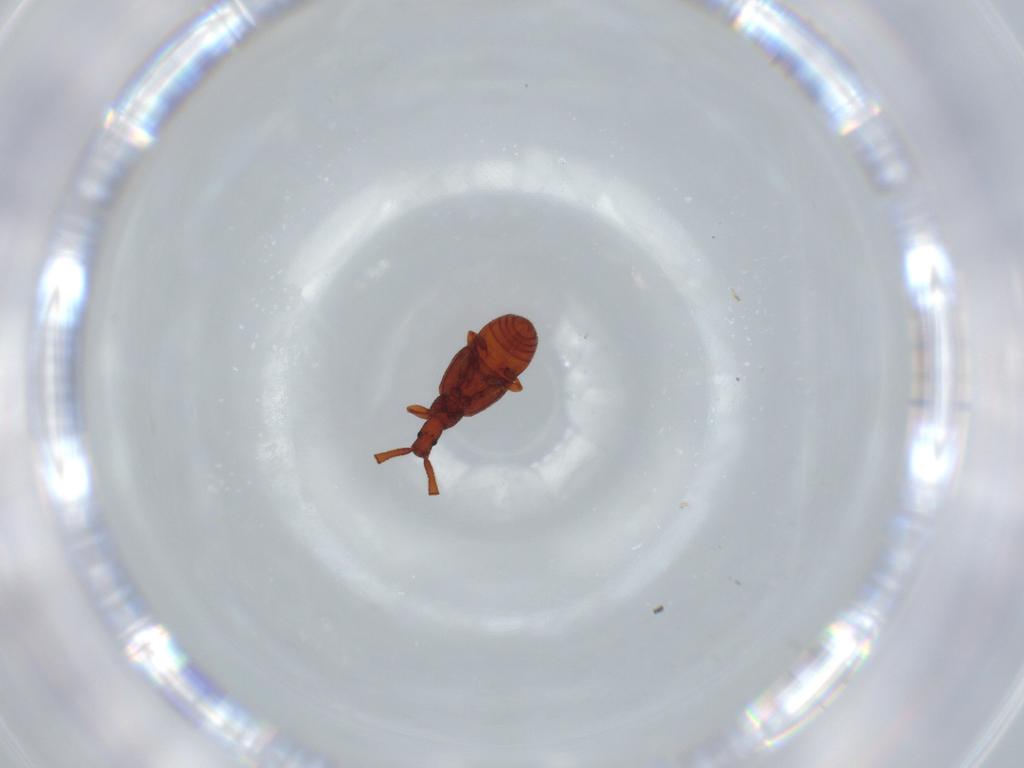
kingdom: Animalia
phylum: Arthropoda
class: Insecta
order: Coleoptera
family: Staphylinidae
